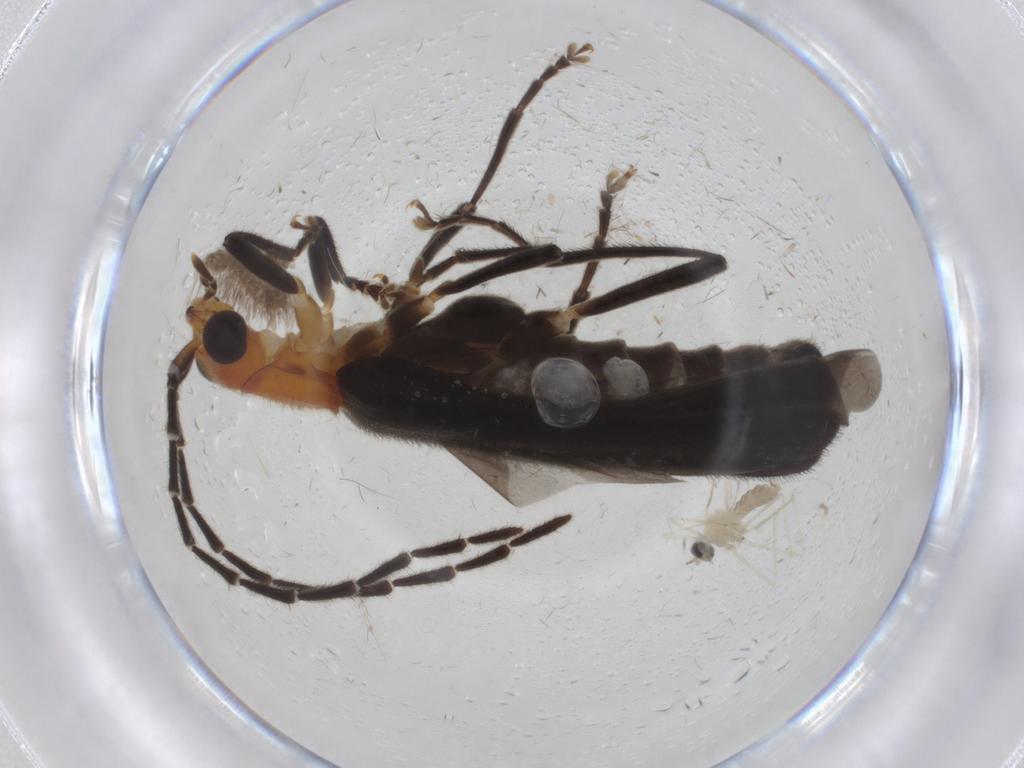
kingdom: Animalia
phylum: Arthropoda
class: Insecta
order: Coleoptera
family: Cantharidae
